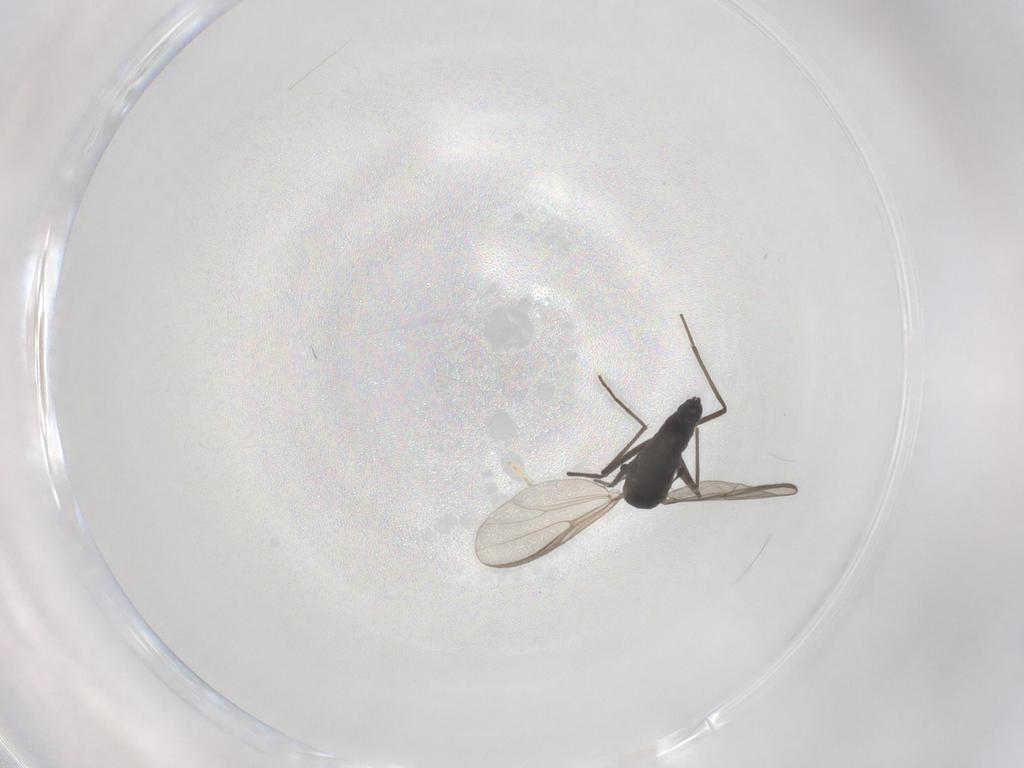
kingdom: Animalia
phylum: Arthropoda
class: Insecta
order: Diptera
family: Chironomidae
